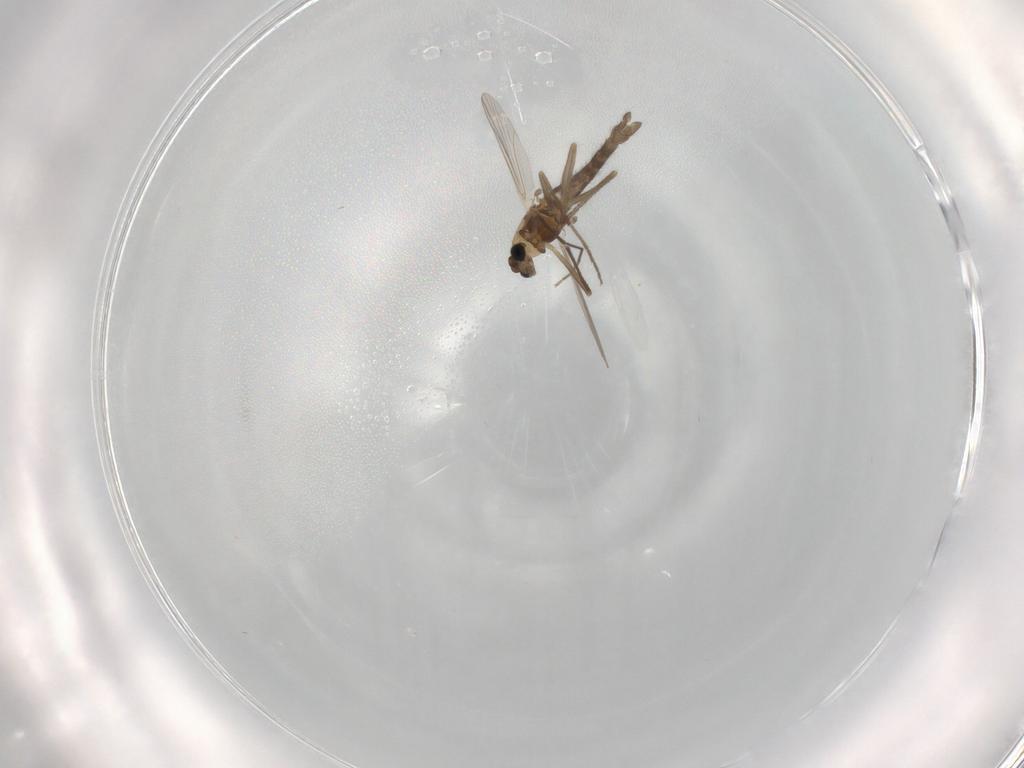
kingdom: Animalia
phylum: Arthropoda
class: Insecta
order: Diptera
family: Chironomidae
